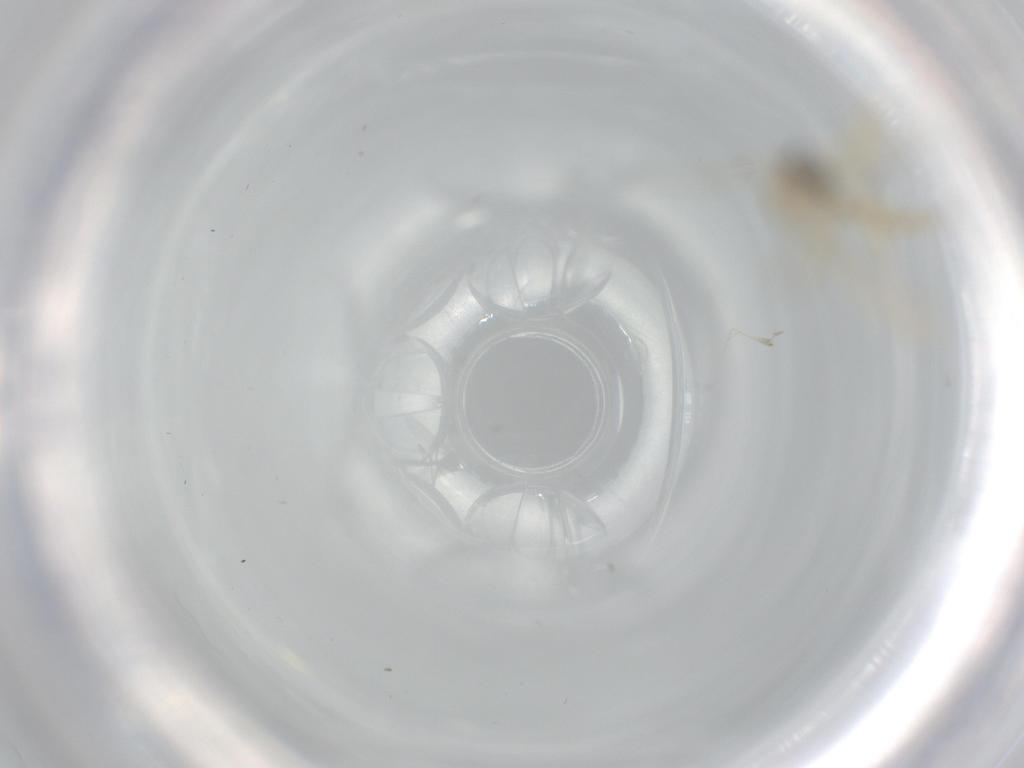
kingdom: Animalia
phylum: Arthropoda
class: Insecta
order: Diptera
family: Chironomidae
